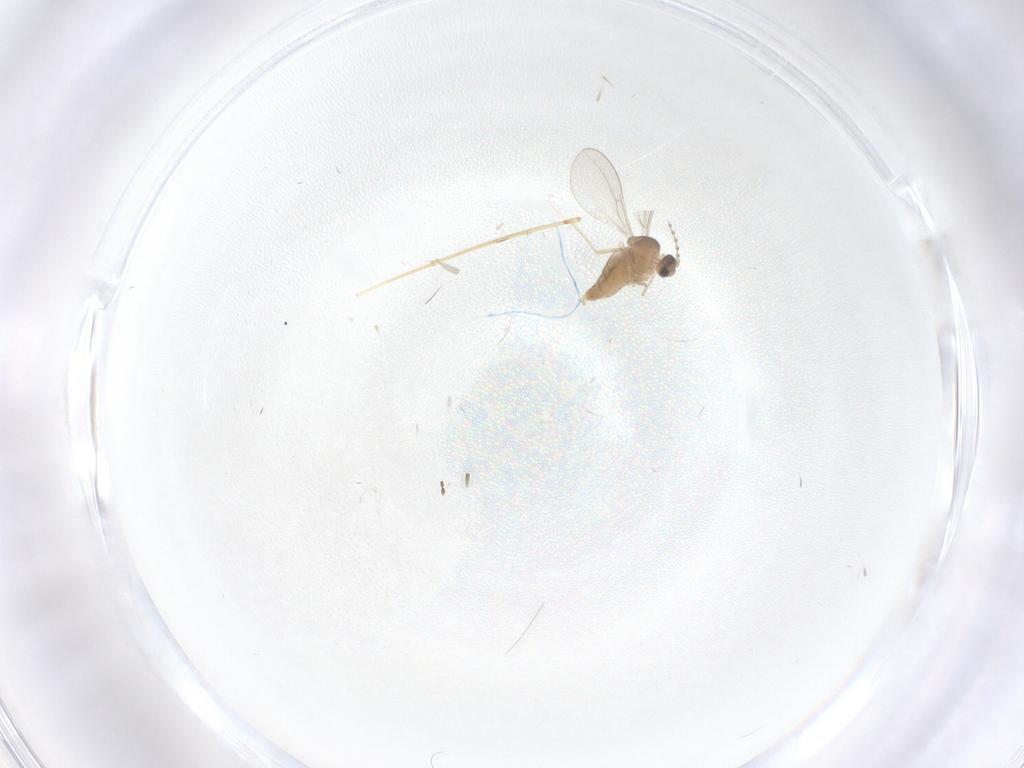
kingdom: Animalia
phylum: Arthropoda
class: Insecta
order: Diptera
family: Cecidomyiidae
